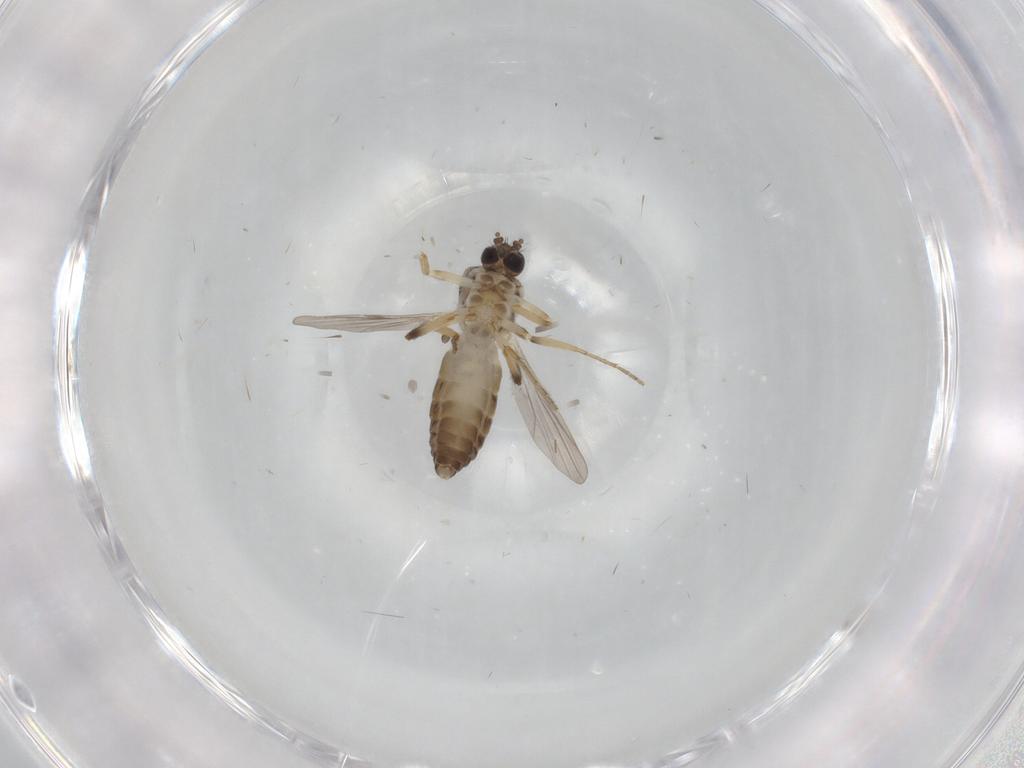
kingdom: Animalia
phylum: Arthropoda
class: Insecta
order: Diptera
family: Ceratopogonidae
